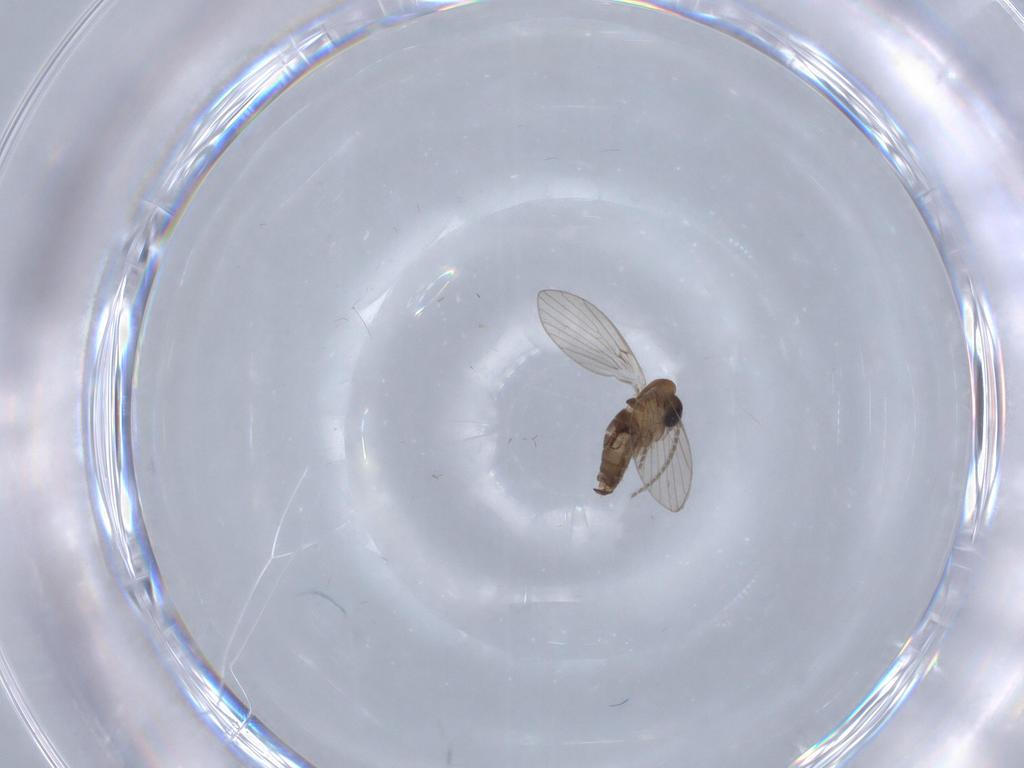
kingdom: Animalia
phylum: Arthropoda
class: Insecta
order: Diptera
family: Psychodidae
